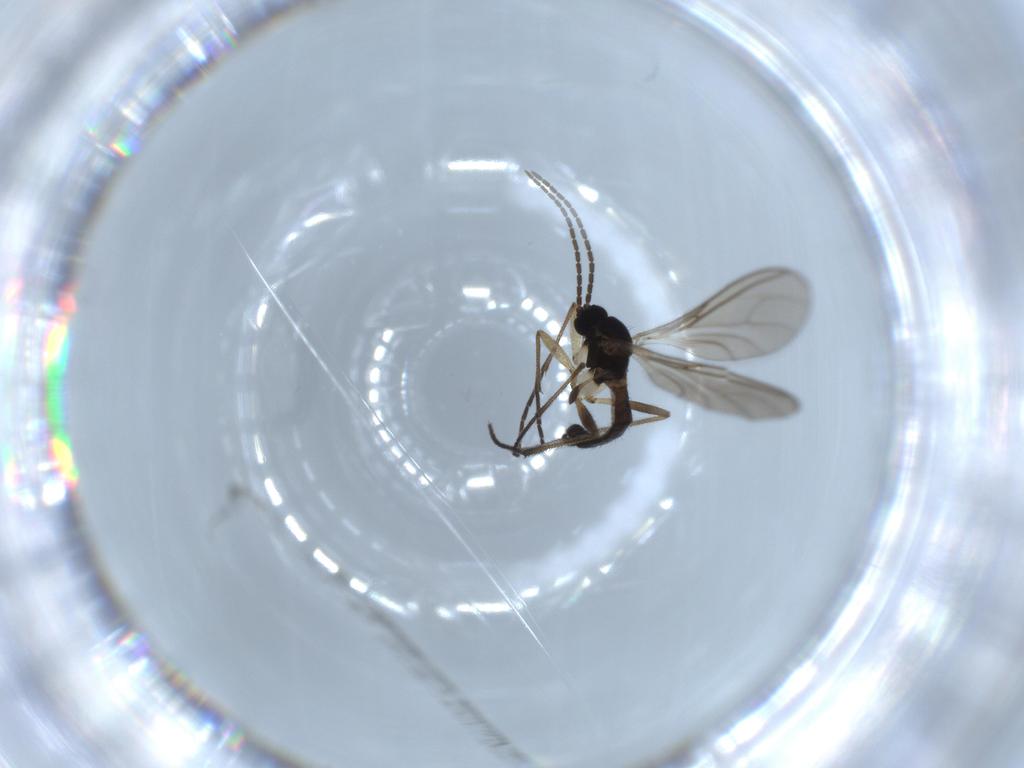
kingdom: Animalia
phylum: Arthropoda
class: Insecta
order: Diptera
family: Sciaridae
